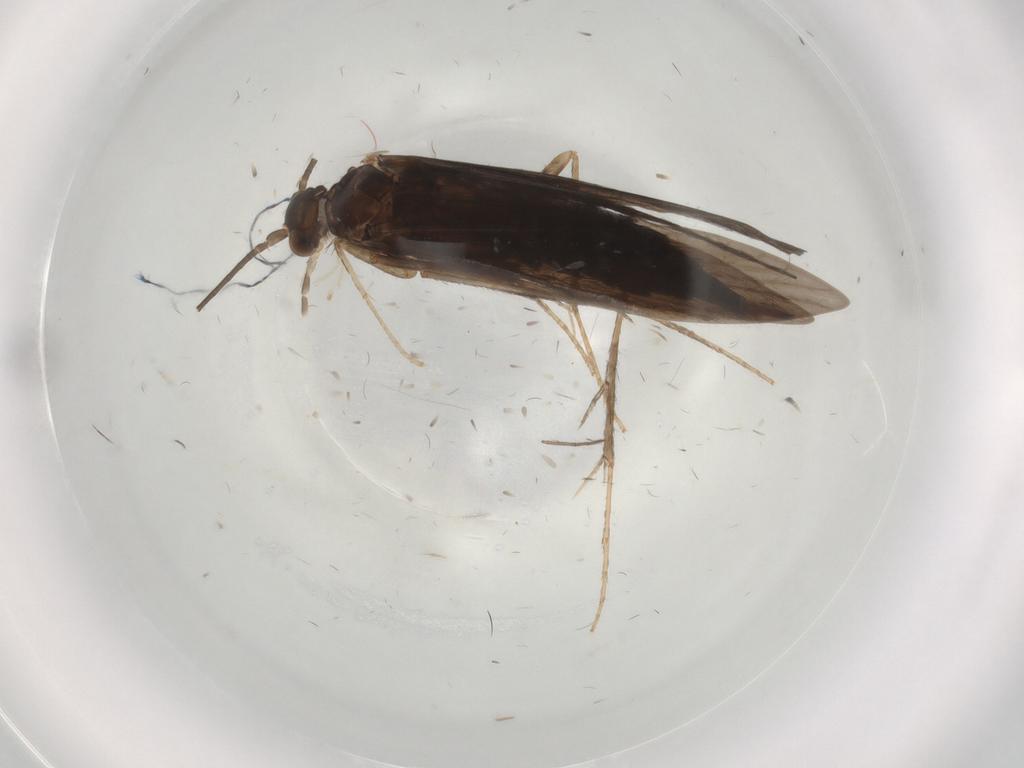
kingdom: Animalia
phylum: Arthropoda
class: Insecta
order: Trichoptera
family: Xiphocentronidae
